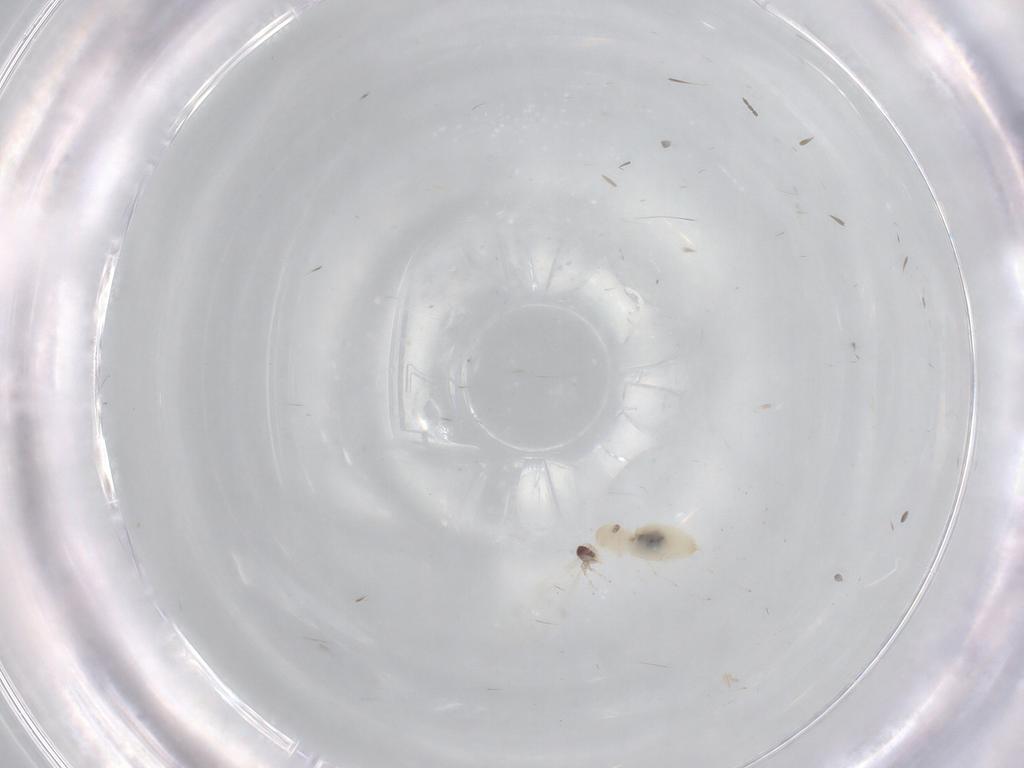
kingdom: Animalia
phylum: Arthropoda
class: Insecta
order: Diptera
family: Cecidomyiidae
